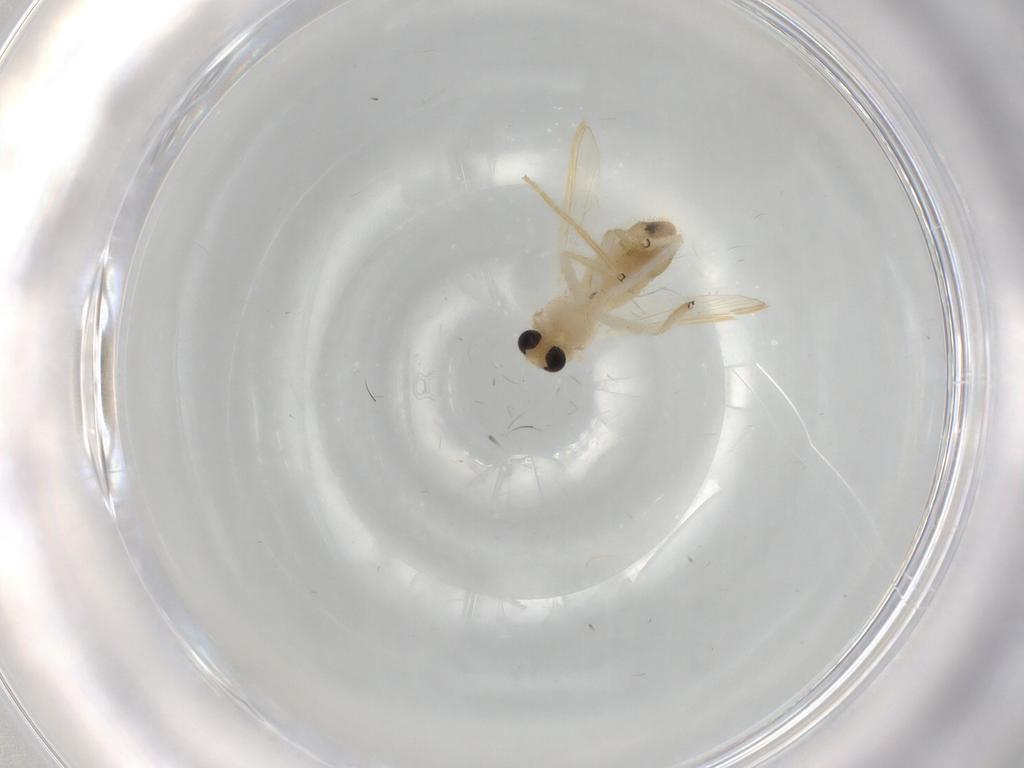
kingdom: Animalia
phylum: Arthropoda
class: Insecta
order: Diptera
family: Chironomidae
